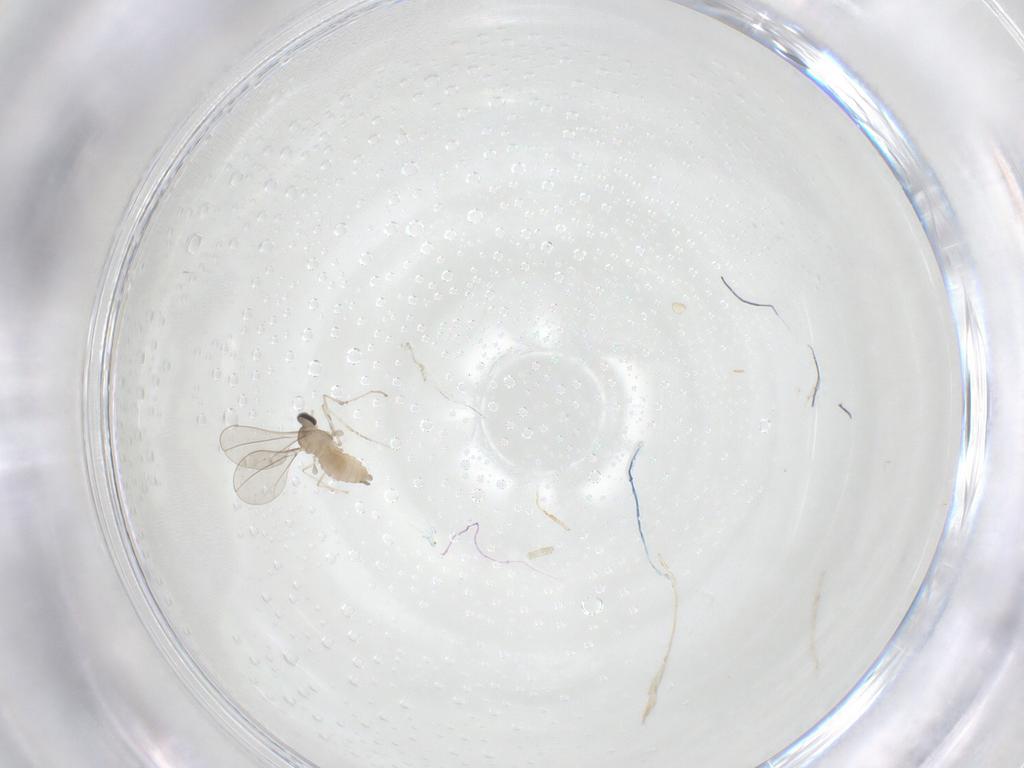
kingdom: Animalia
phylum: Arthropoda
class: Insecta
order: Diptera
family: Cecidomyiidae
